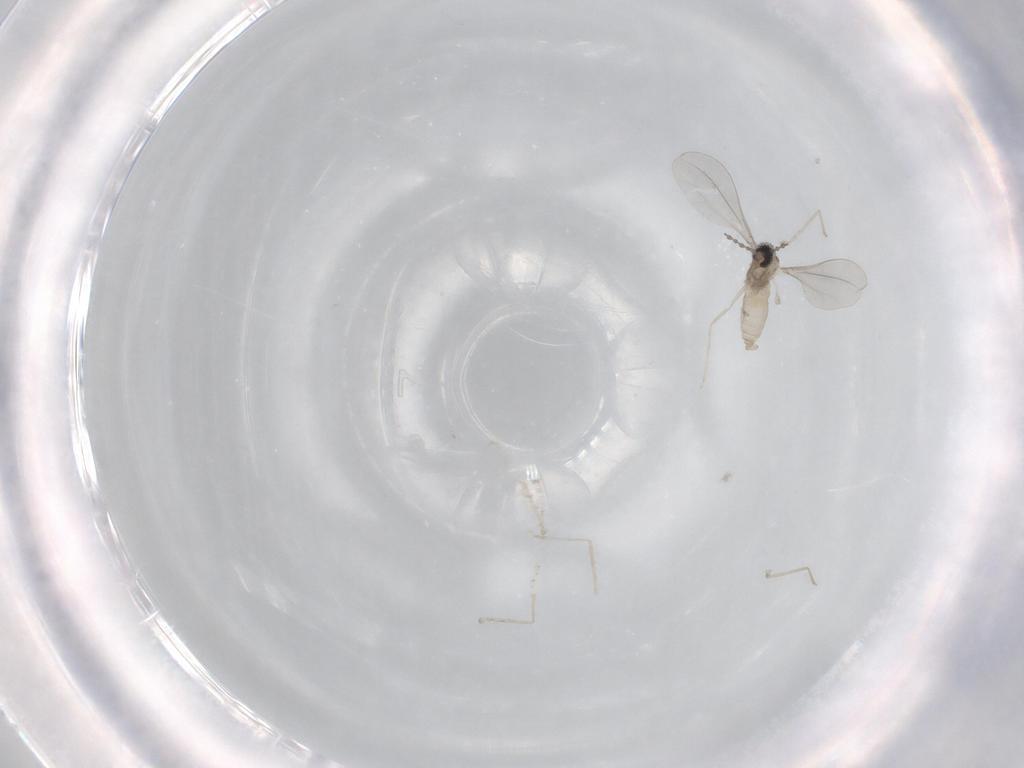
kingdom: Animalia
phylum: Arthropoda
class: Insecta
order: Diptera
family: Cecidomyiidae
